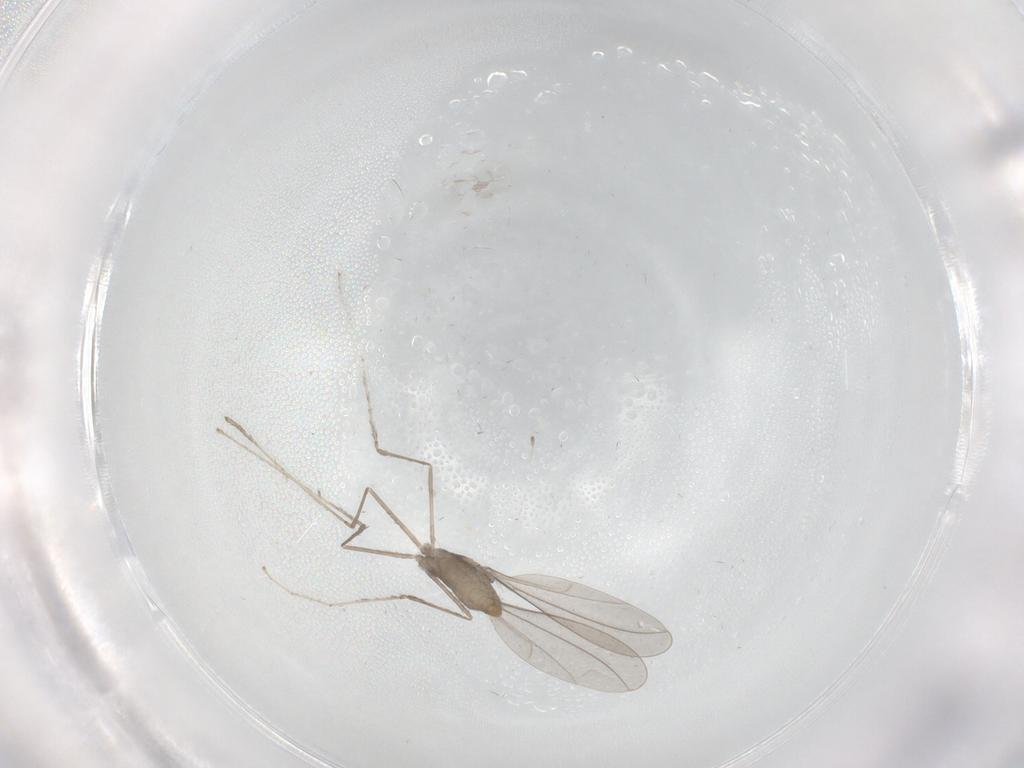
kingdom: Animalia
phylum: Arthropoda
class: Insecta
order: Diptera
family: Cecidomyiidae
